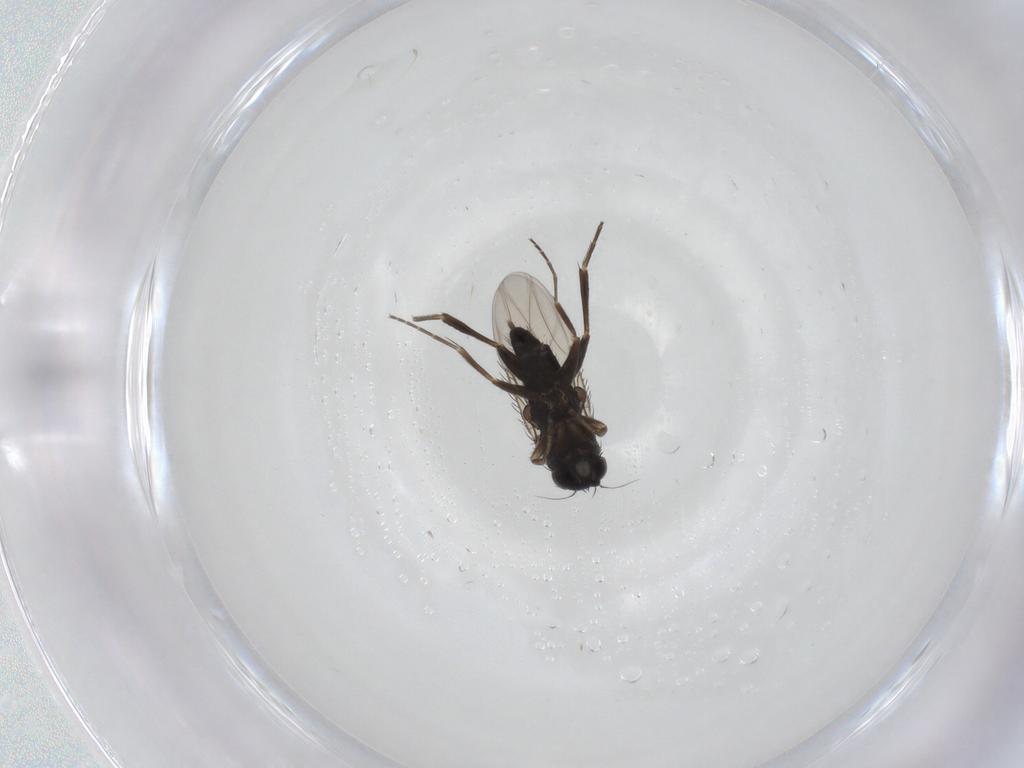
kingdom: Animalia
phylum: Arthropoda
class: Insecta
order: Diptera
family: Phoridae
